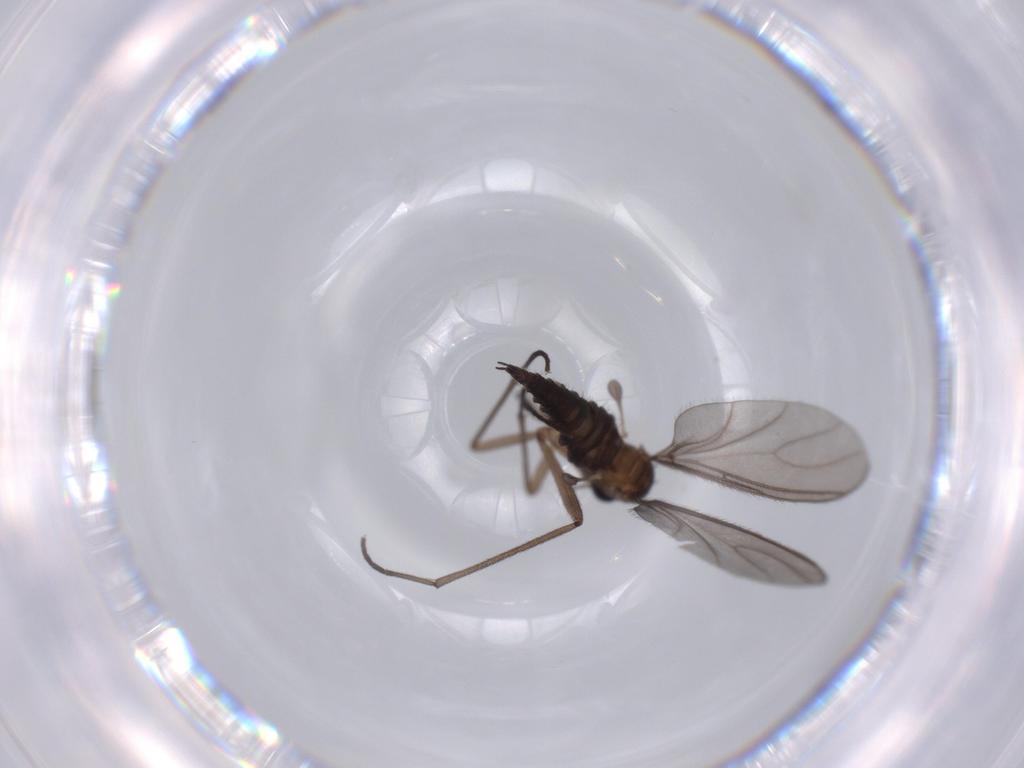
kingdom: Animalia
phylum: Arthropoda
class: Insecta
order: Diptera
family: Sciaridae
